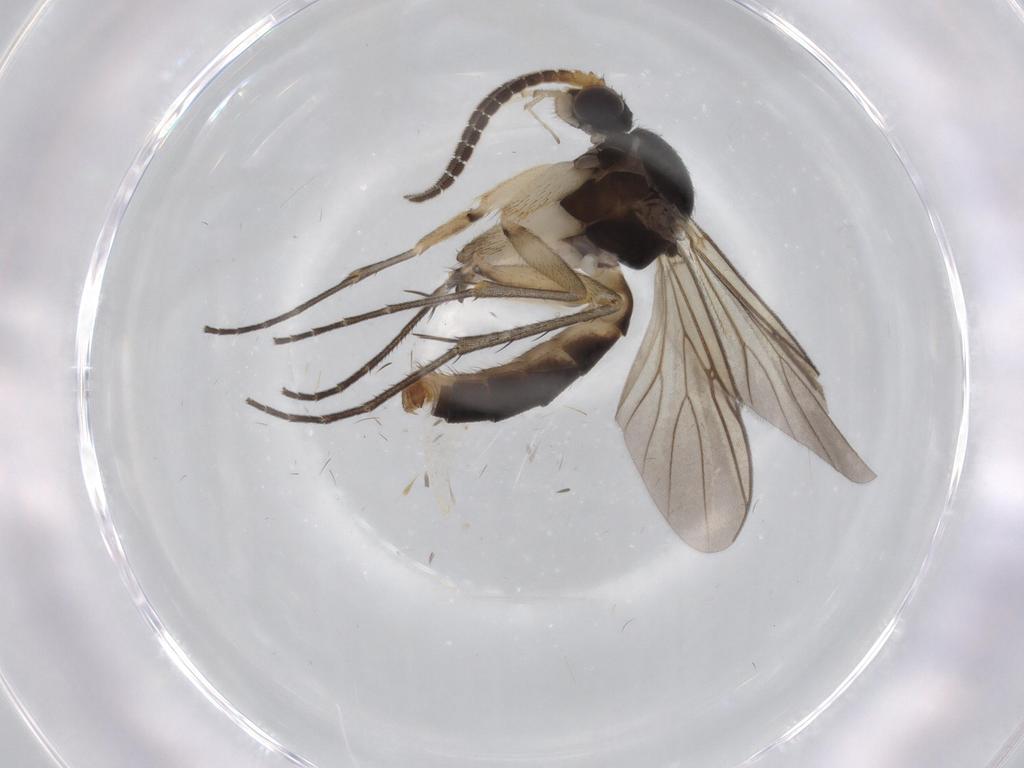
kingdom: Animalia
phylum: Arthropoda
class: Insecta
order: Diptera
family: Mycetophilidae
